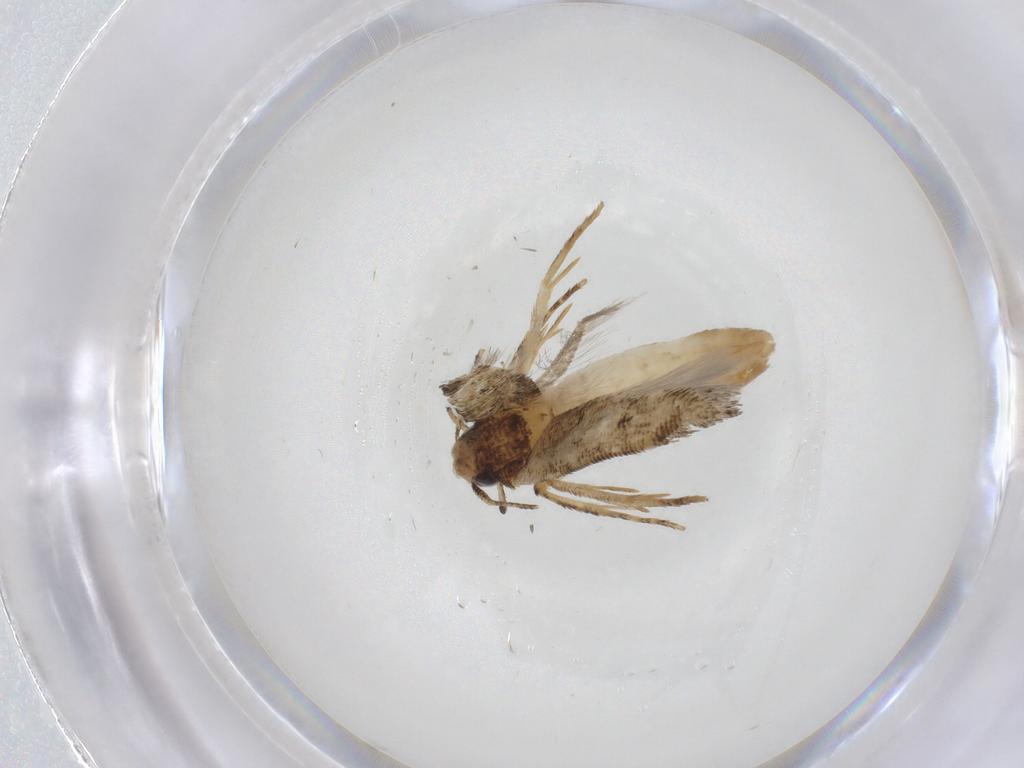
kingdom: Animalia
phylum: Arthropoda
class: Insecta
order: Lepidoptera
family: Gelechiidae
